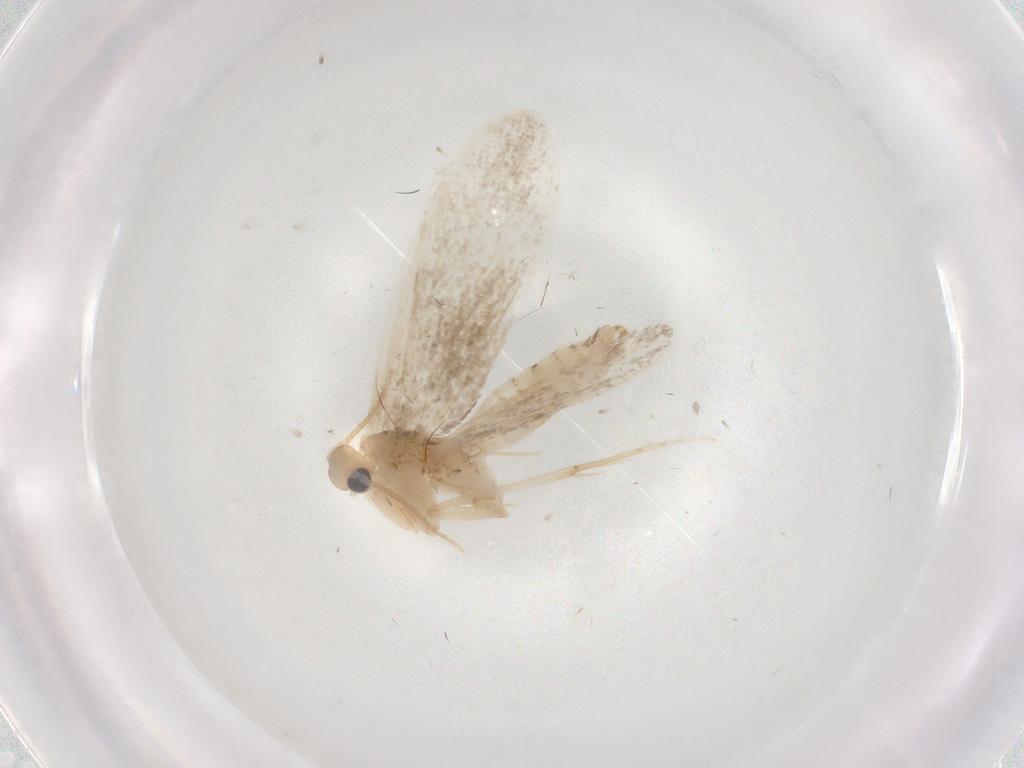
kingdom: Animalia
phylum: Arthropoda
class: Insecta
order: Lepidoptera
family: Psychidae
